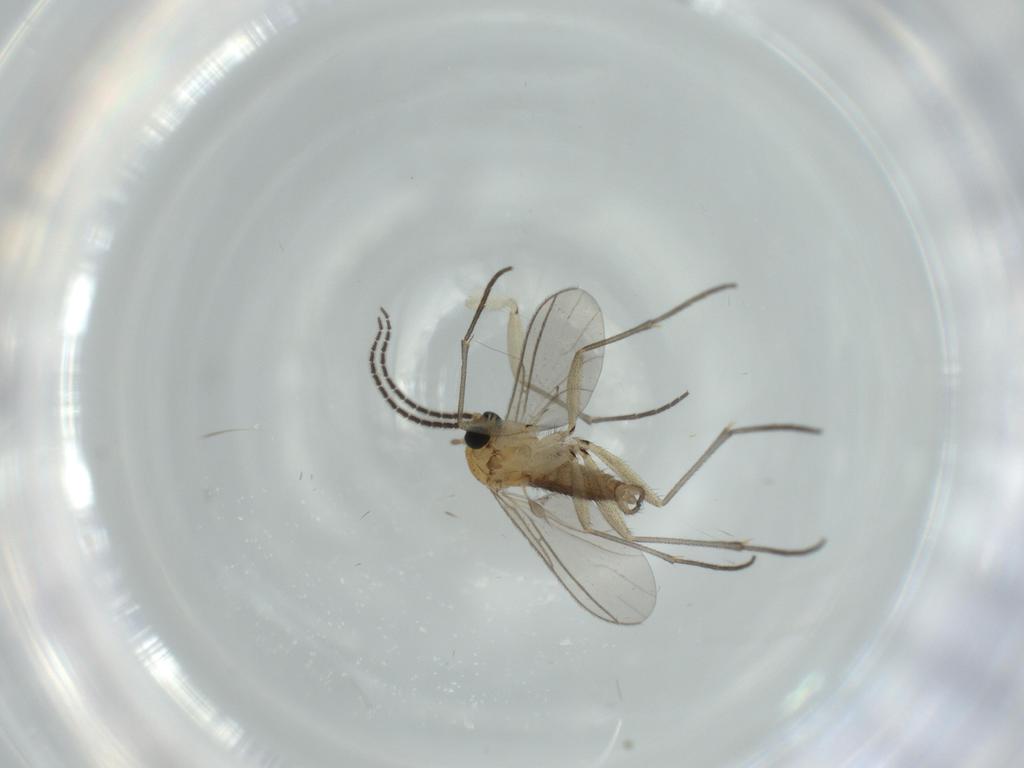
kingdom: Animalia
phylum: Arthropoda
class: Insecta
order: Diptera
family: Sciaridae
